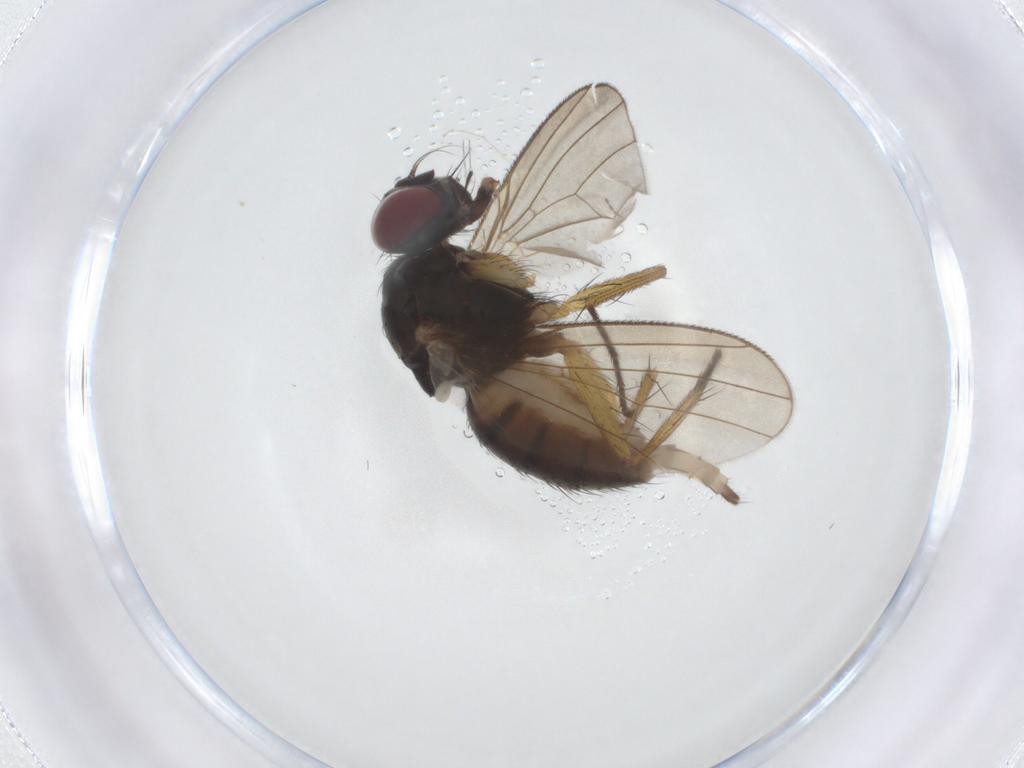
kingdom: Animalia
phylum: Arthropoda
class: Insecta
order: Diptera
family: Muscidae
